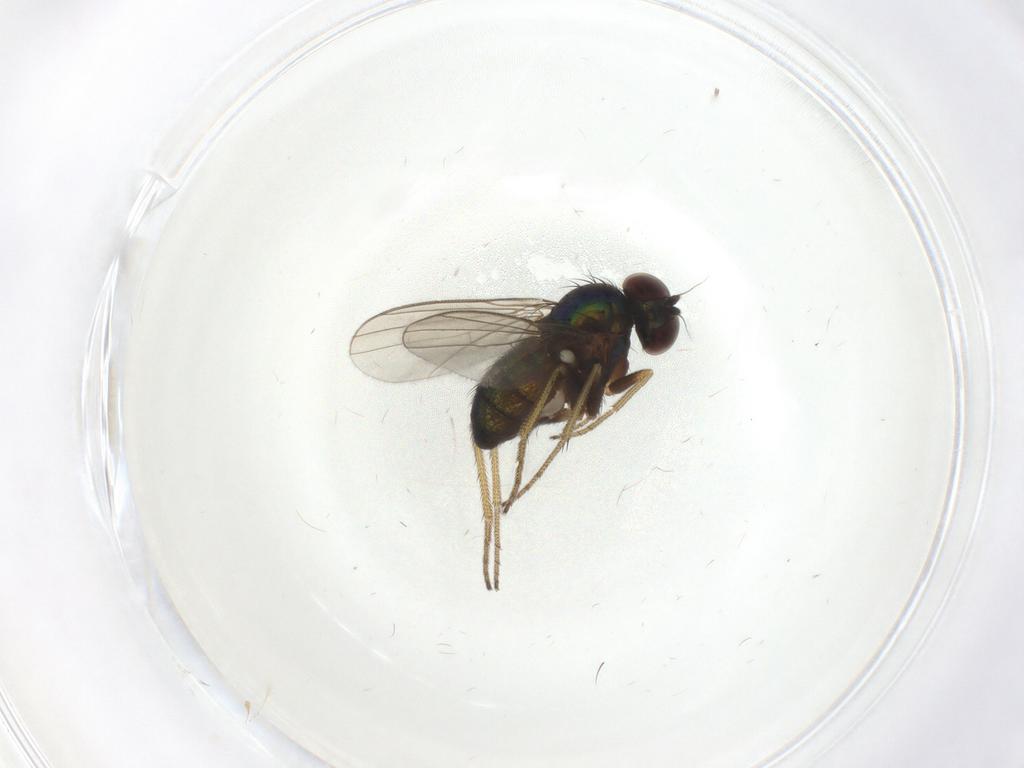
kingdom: Animalia
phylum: Arthropoda
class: Insecta
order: Diptera
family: Dolichopodidae
